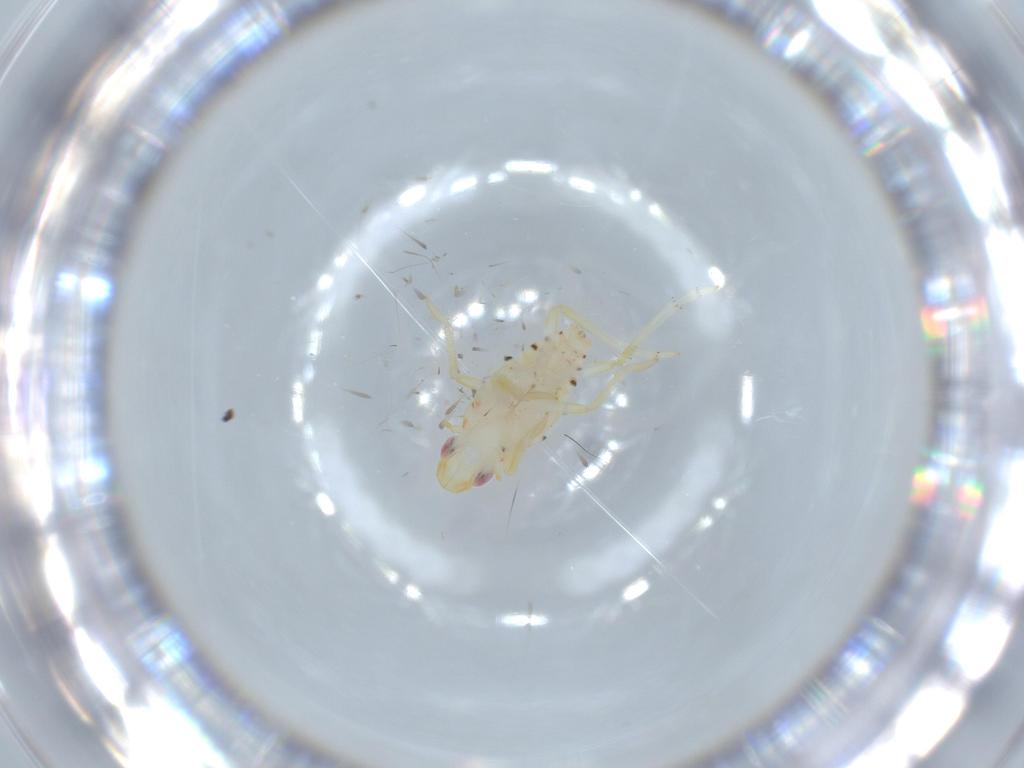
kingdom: Animalia
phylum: Arthropoda
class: Insecta
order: Hemiptera
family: Tropiduchidae
